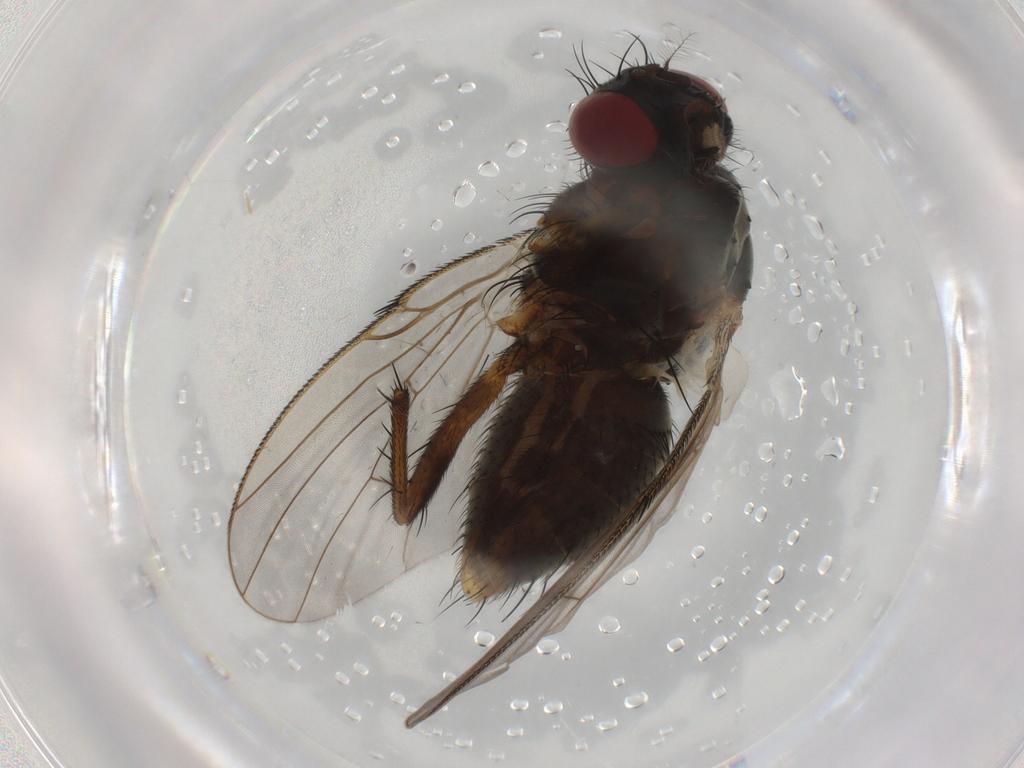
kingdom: Animalia
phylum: Arthropoda
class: Insecta
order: Diptera
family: Muscidae
